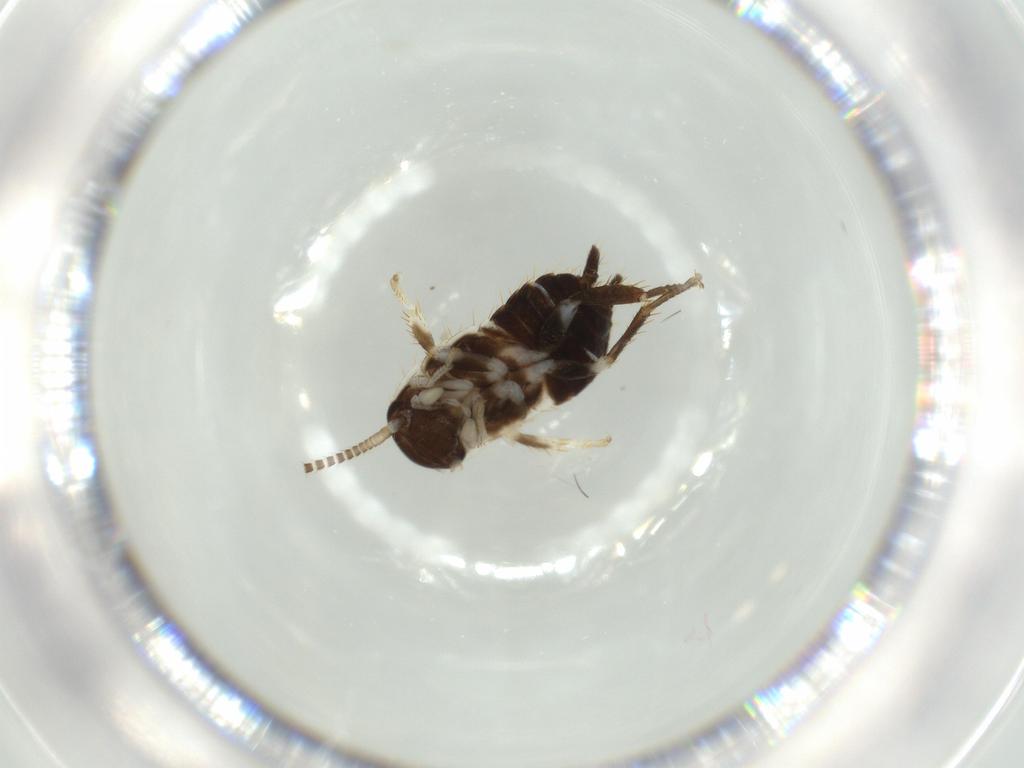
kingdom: Animalia
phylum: Arthropoda
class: Insecta
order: Blattodea
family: Ectobiidae
